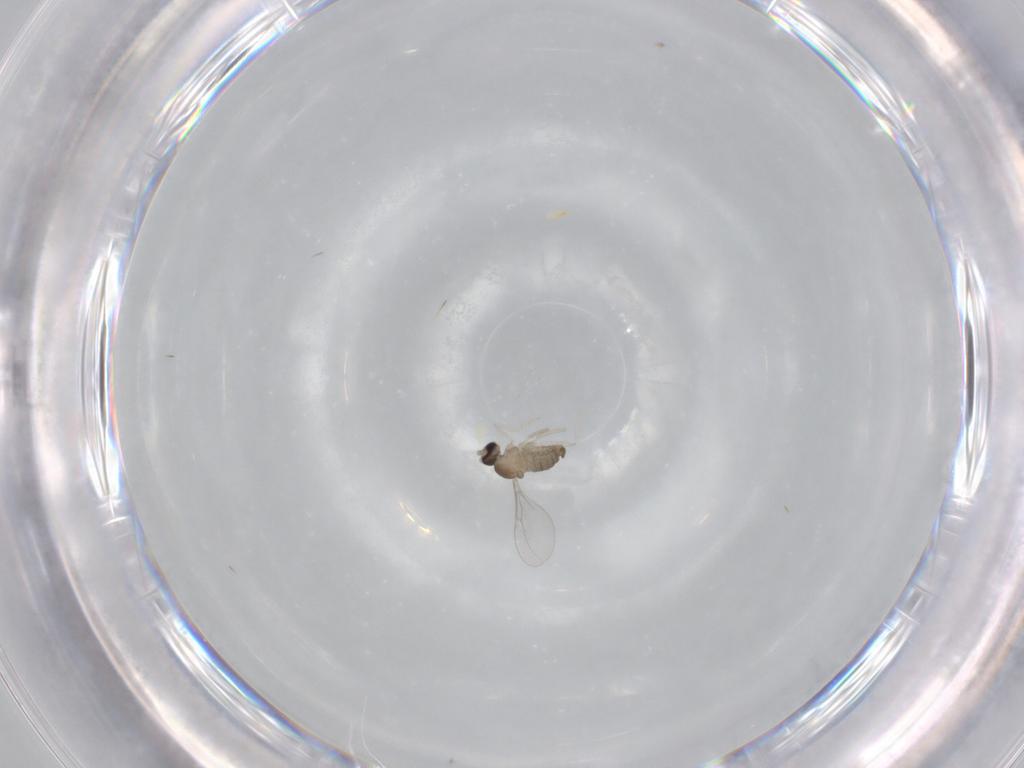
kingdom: Animalia
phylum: Arthropoda
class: Insecta
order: Diptera
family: Cecidomyiidae
